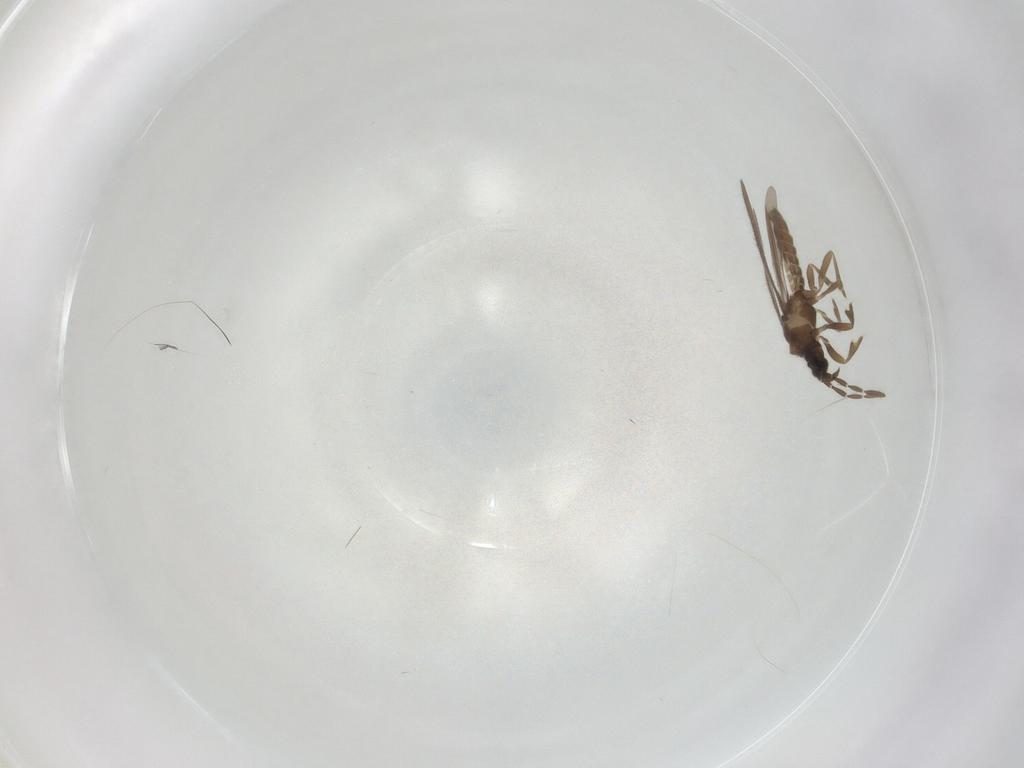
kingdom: Animalia
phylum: Arthropoda
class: Insecta
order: Hemiptera
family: Enicocephalidae
